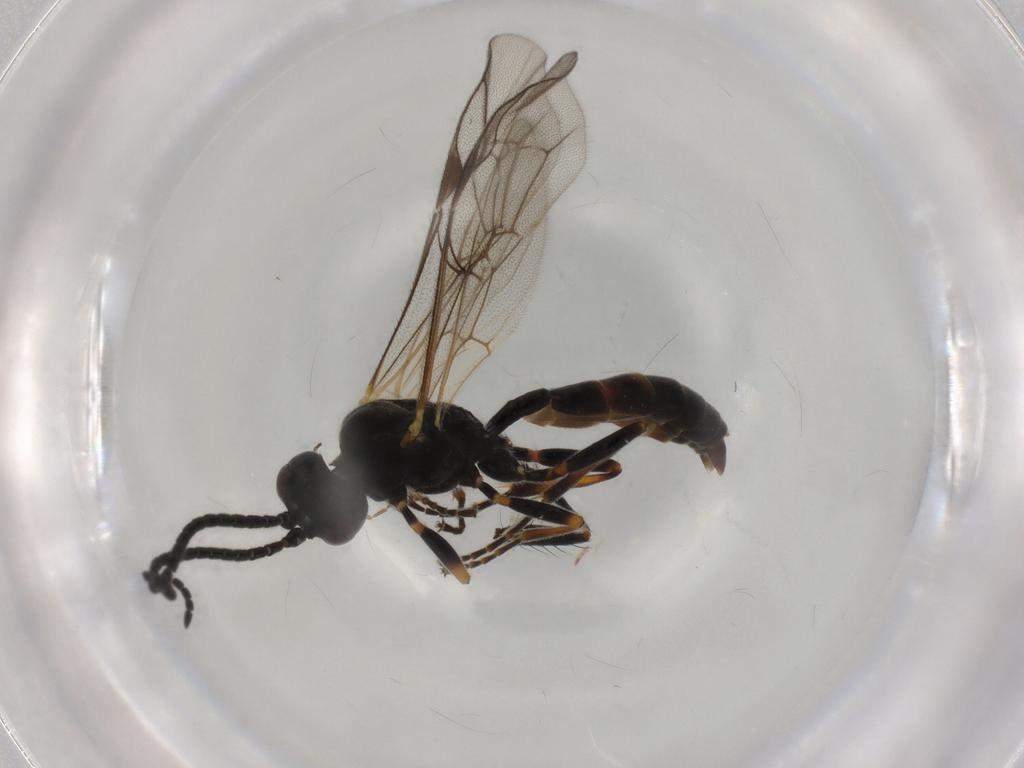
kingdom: Animalia
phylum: Arthropoda
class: Insecta
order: Hymenoptera
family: Ichneumonidae
